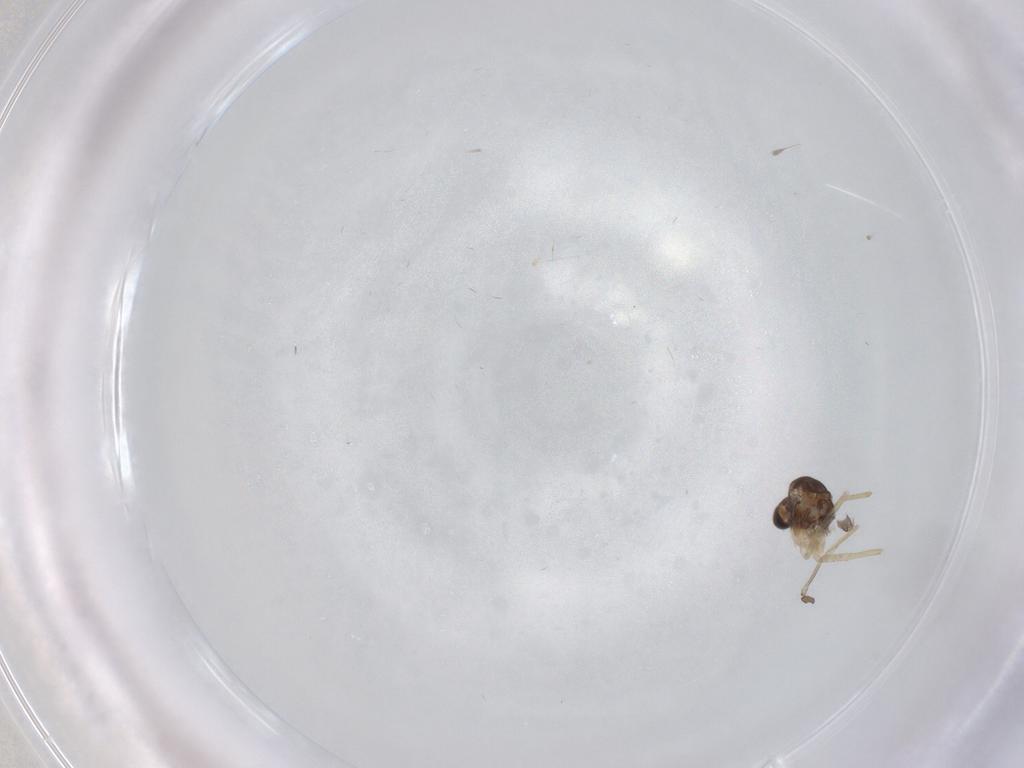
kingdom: Animalia
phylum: Arthropoda
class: Insecta
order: Diptera
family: Chironomidae
